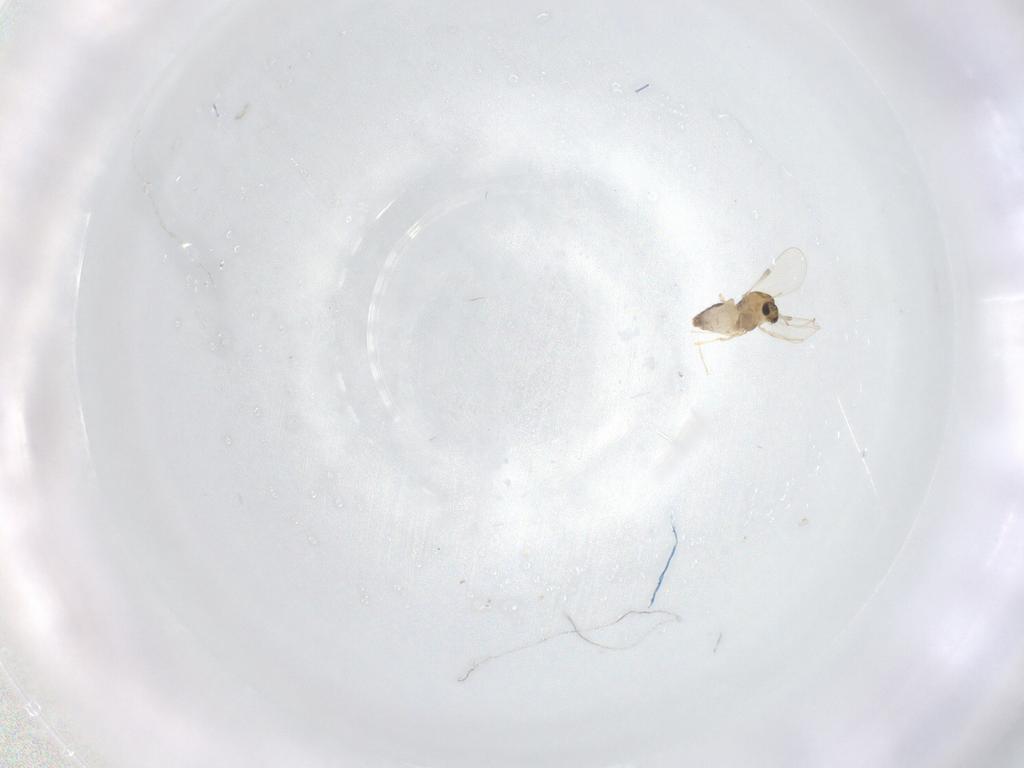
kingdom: Animalia
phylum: Arthropoda
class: Insecta
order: Diptera
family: Chironomidae
